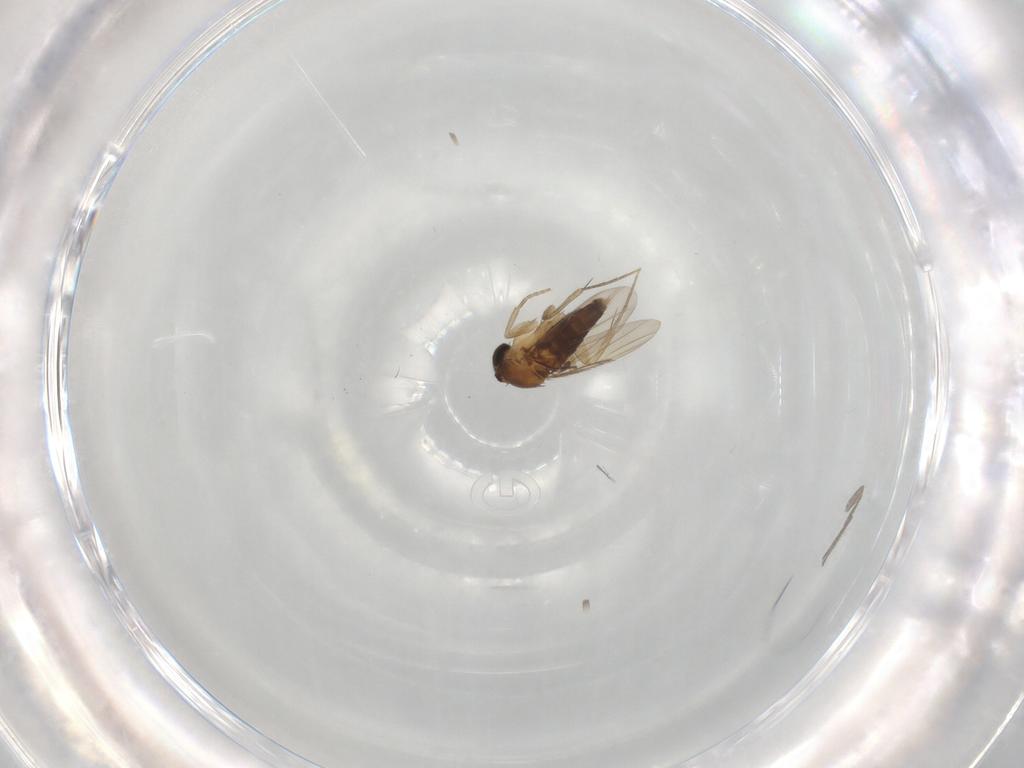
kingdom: Animalia
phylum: Arthropoda
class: Insecta
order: Diptera
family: Phoridae
